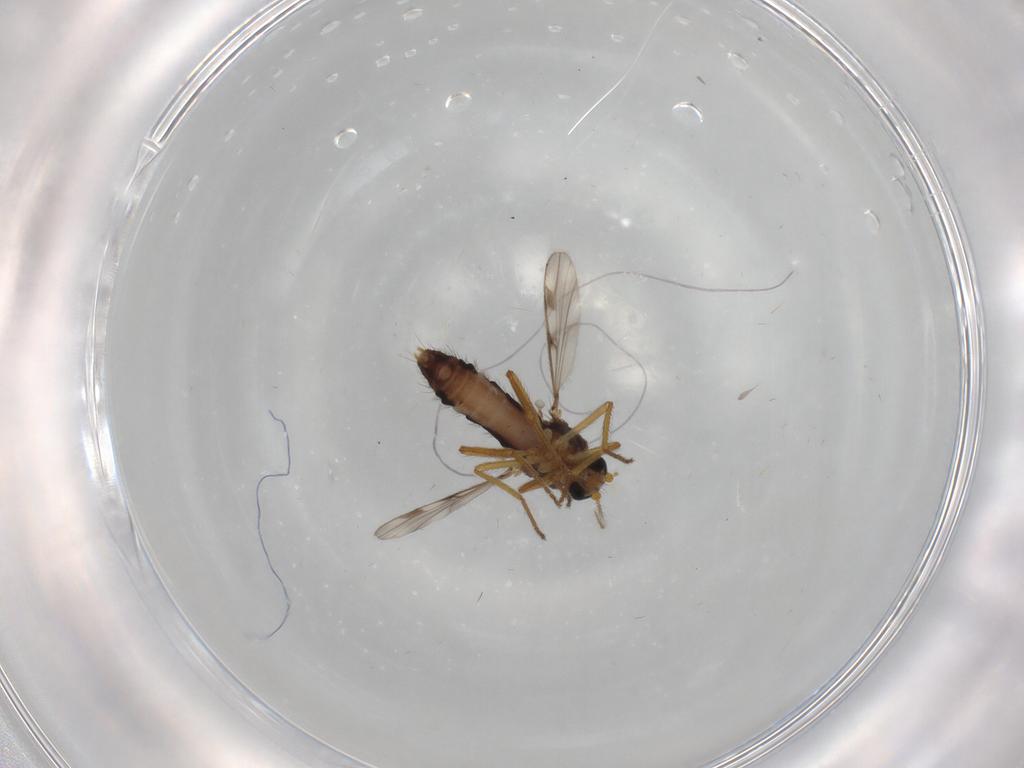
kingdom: Animalia
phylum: Arthropoda
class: Insecta
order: Diptera
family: Ceratopogonidae
